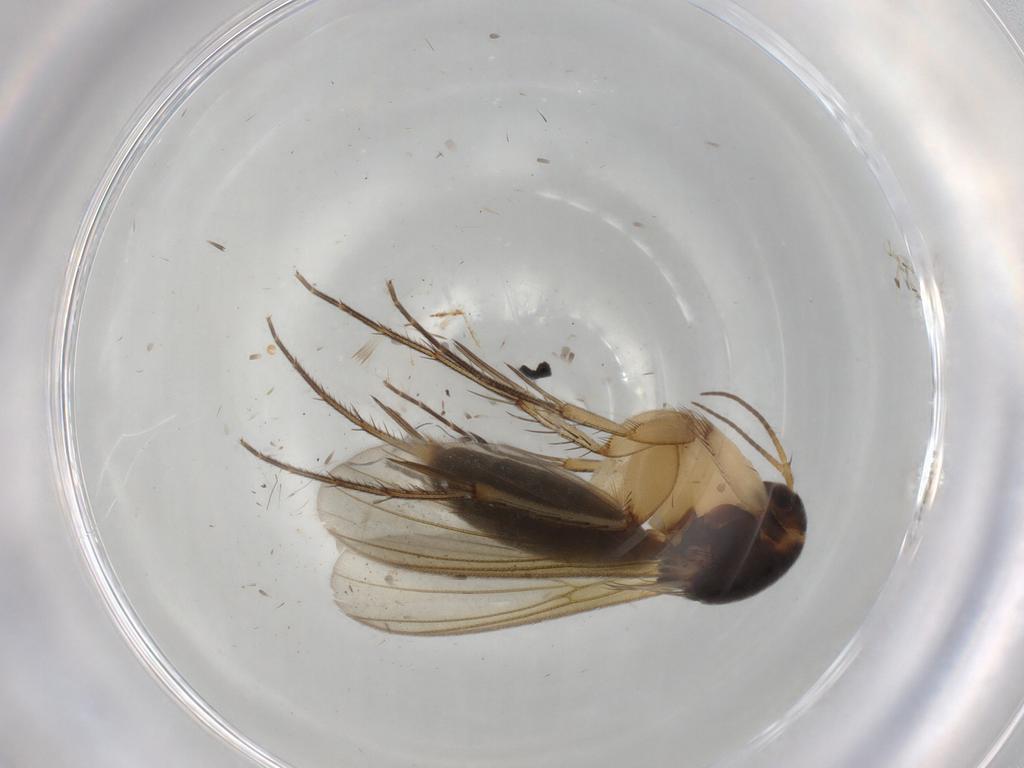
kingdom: Animalia
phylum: Arthropoda
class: Insecta
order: Diptera
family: Mycetophilidae
